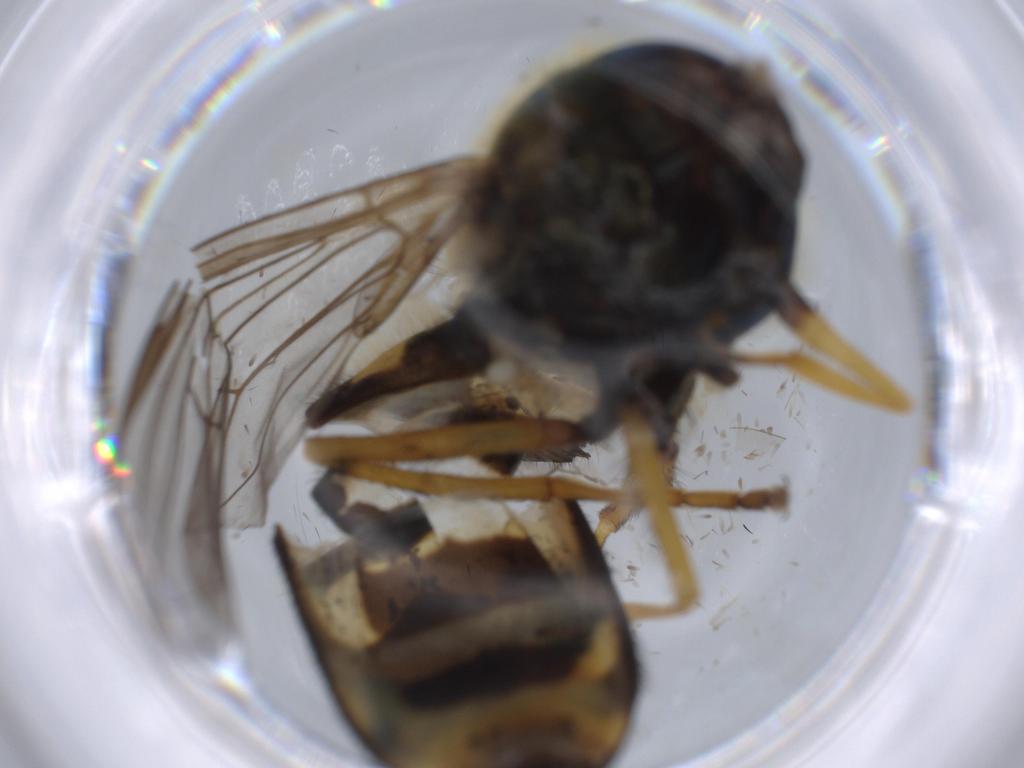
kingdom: Animalia
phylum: Arthropoda
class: Insecta
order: Diptera
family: Syrphidae
